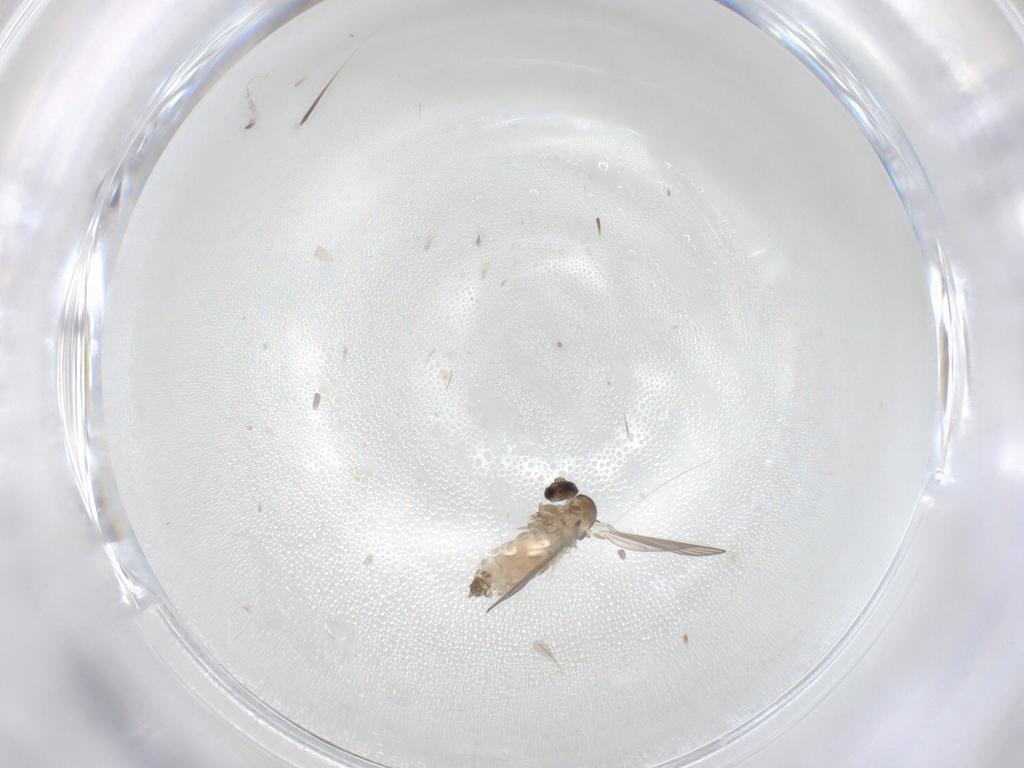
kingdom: Animalia
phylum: Arthropoda
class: Insecta
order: Diptera
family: Psychodidae
